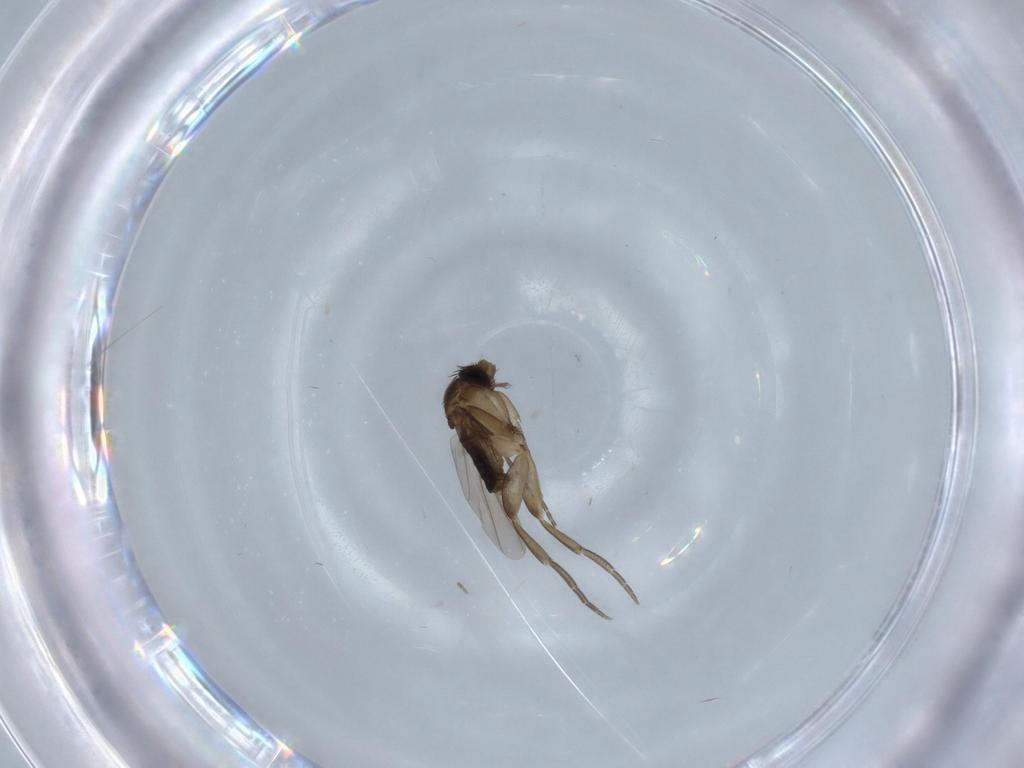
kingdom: Animalia
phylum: Arthropoda
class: Insecta
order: Diptera
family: Phoridae
